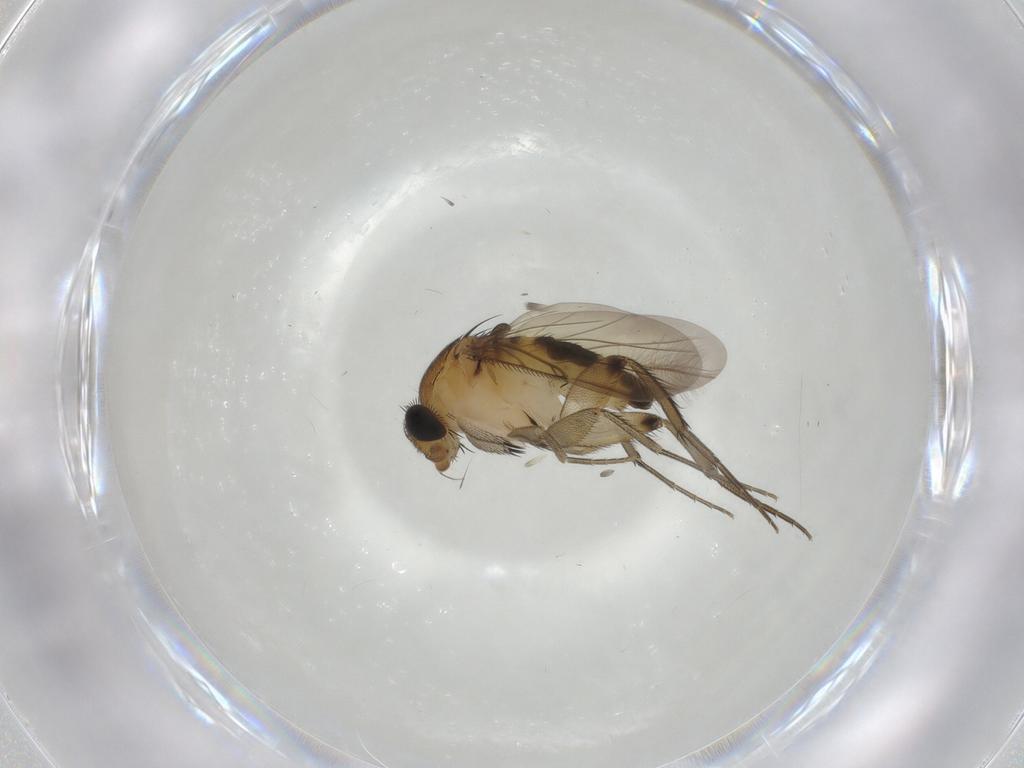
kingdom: Animalia
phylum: Arthropoda
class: Insecta
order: Diptera
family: Phoridae
